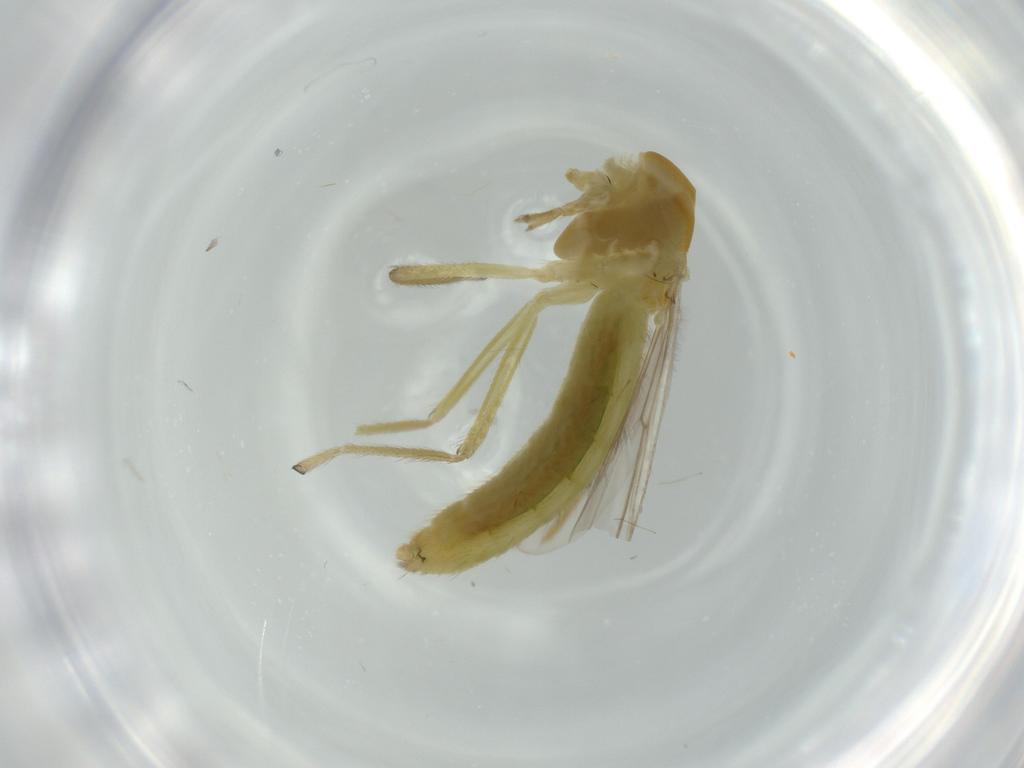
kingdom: Animalia
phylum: Arthropoda
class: Insecta
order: Diptera
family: Chironomidae
